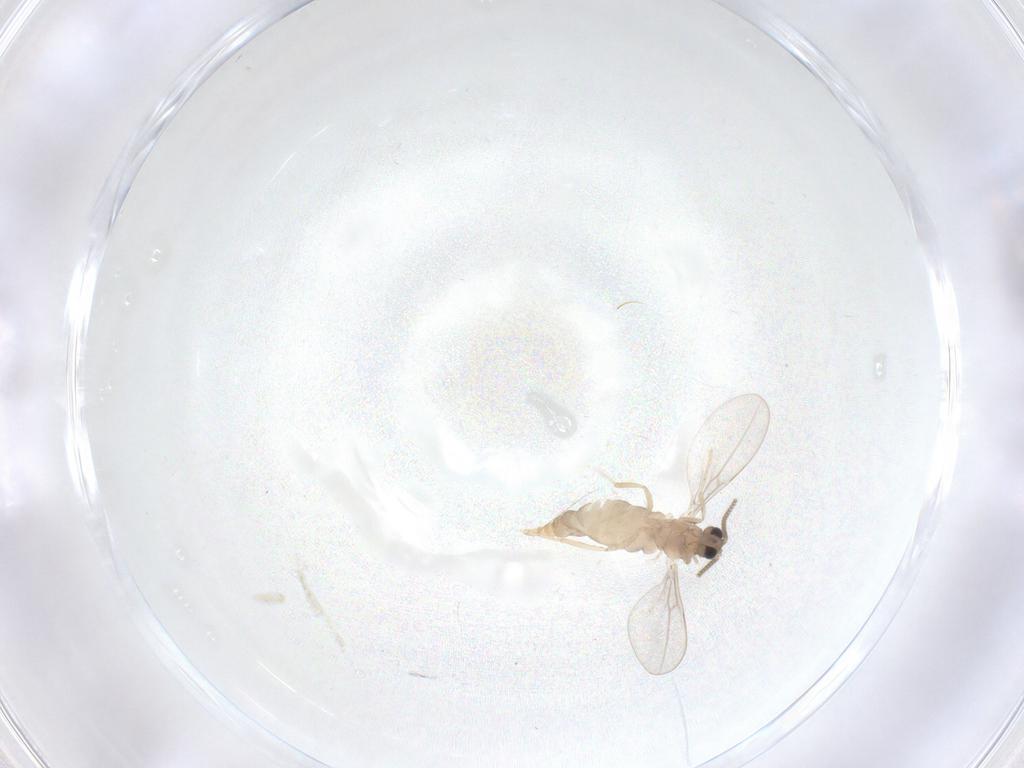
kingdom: Animalia
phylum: Arthropoda
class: Insecta
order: Diptera
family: Cecidomyiidae
